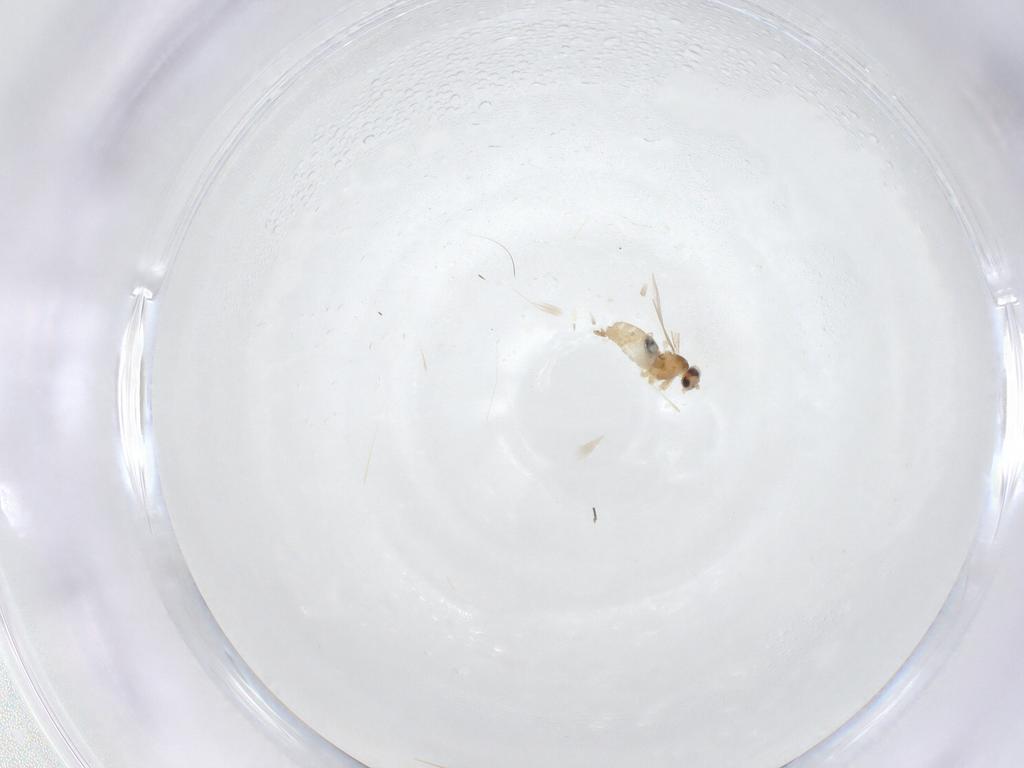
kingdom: Animalia
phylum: Arthropoda
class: Insecta
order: Diptera
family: Cecidomyiidae
